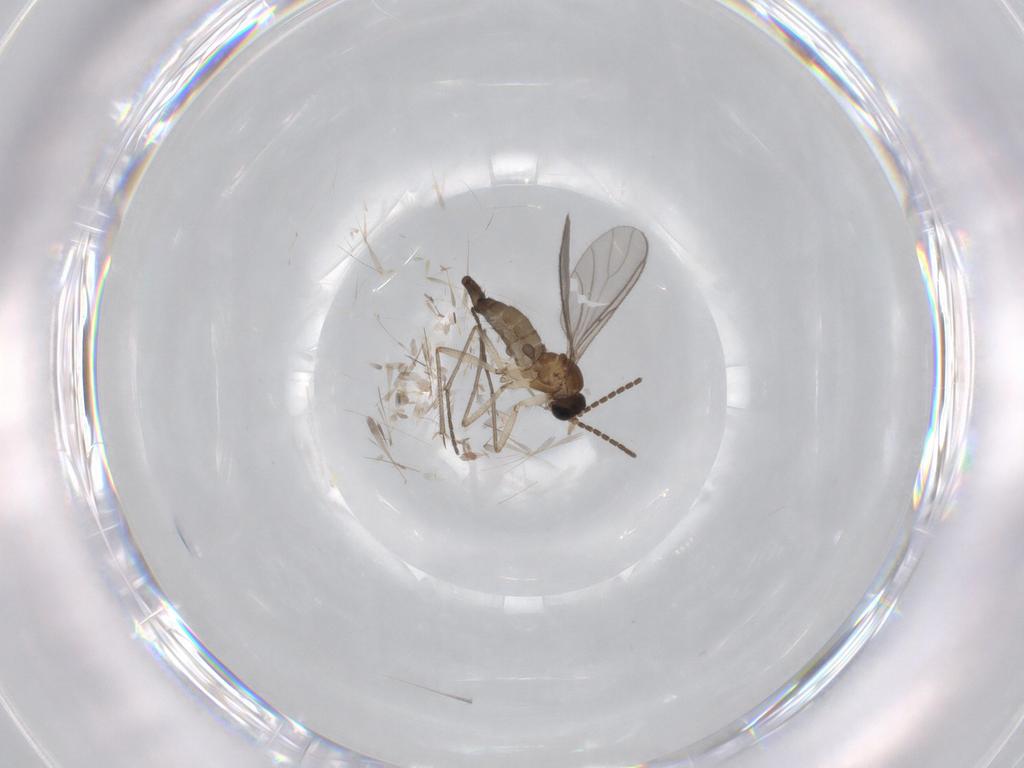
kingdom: Animalia
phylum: Arthropoda
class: Insecta
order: Diptera
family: Sciaridae
